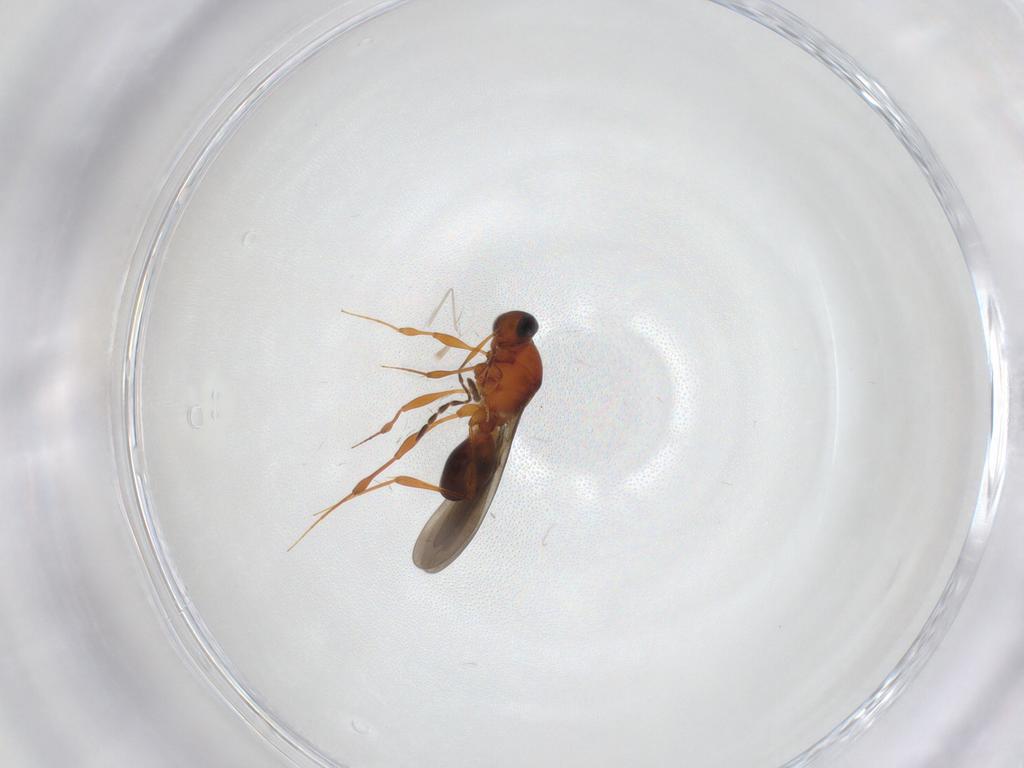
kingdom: Animalia
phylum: Arthropoda
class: Insecta
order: Hymenoptera
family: Platygastridae
